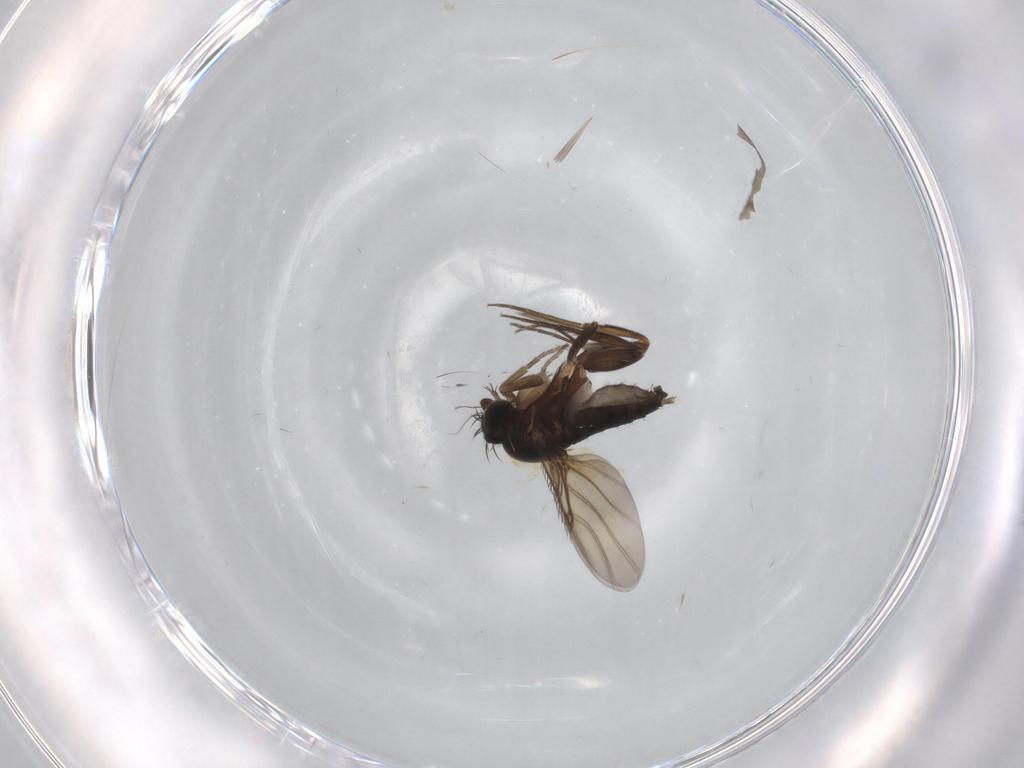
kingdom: Animalia
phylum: Arthropoda
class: Insecta
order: Diptera
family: Phoridae
